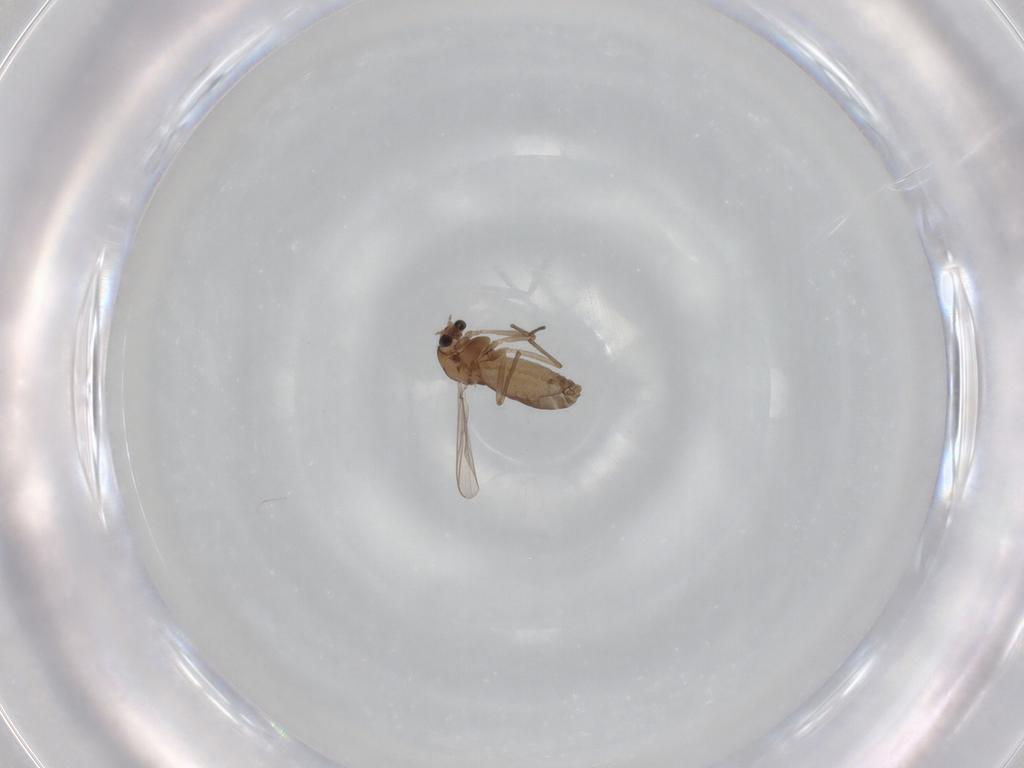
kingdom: Animalia
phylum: Arthropoda
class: Insecta
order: Diptera
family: Chironomidae
